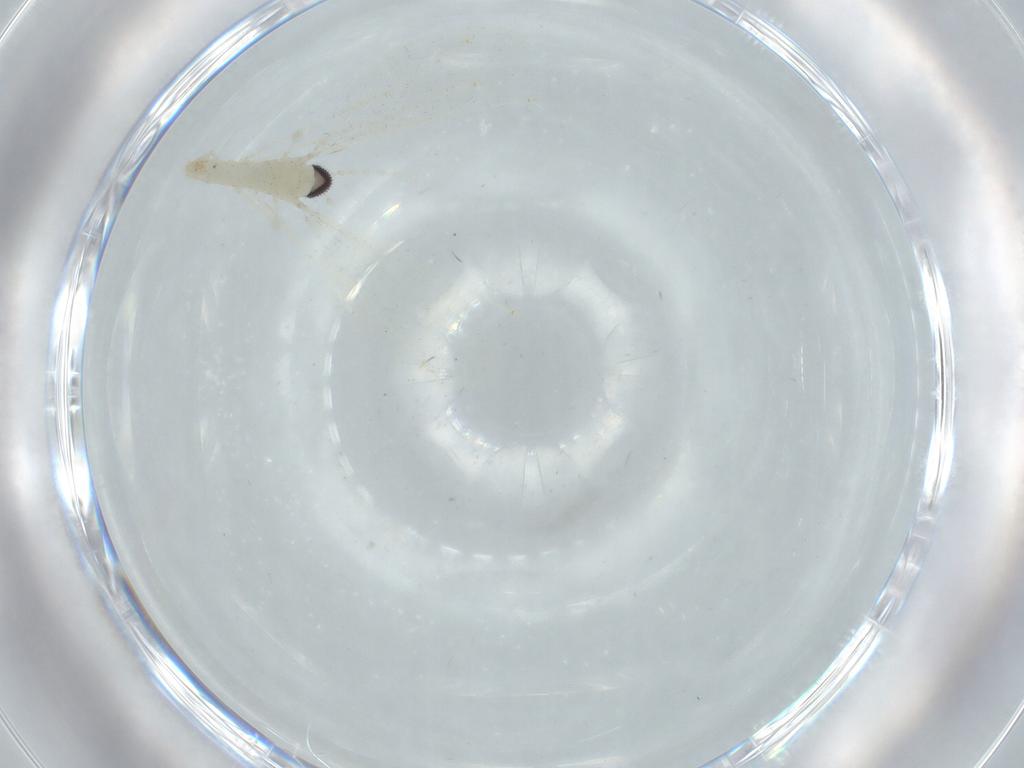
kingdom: Animalia
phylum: Arthropoda
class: Insecta
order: Diptera
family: Cecidomyiidae
